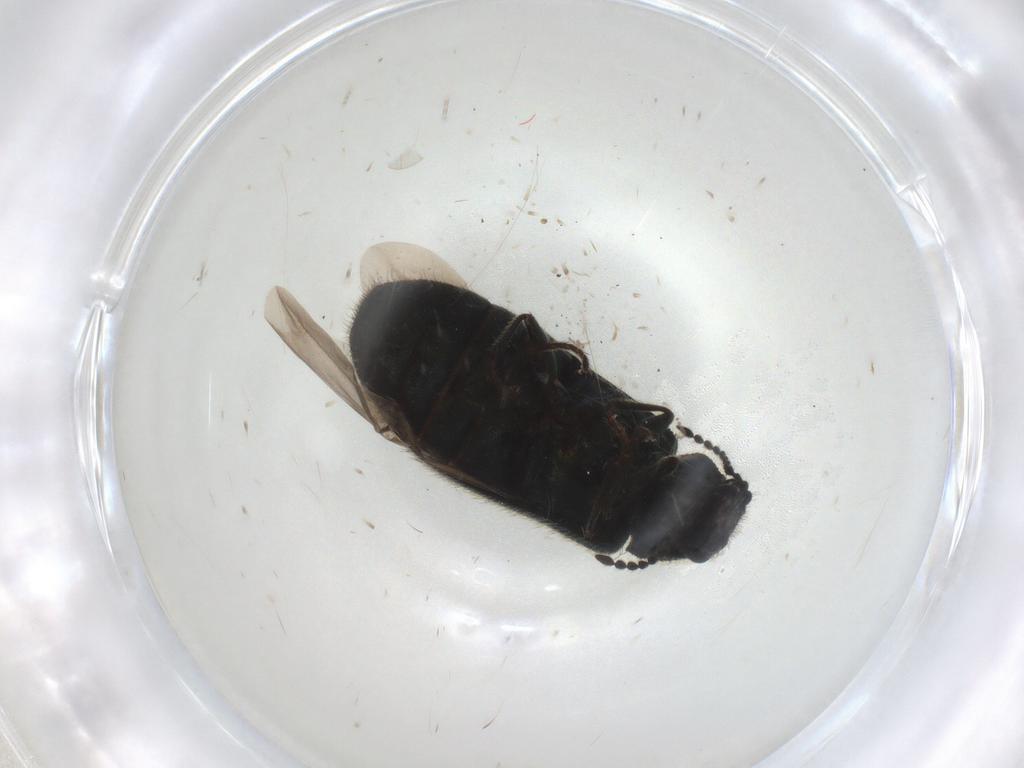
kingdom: Animalia
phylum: Arthropoda
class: Insecta
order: Coleoptera
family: Melyridae
